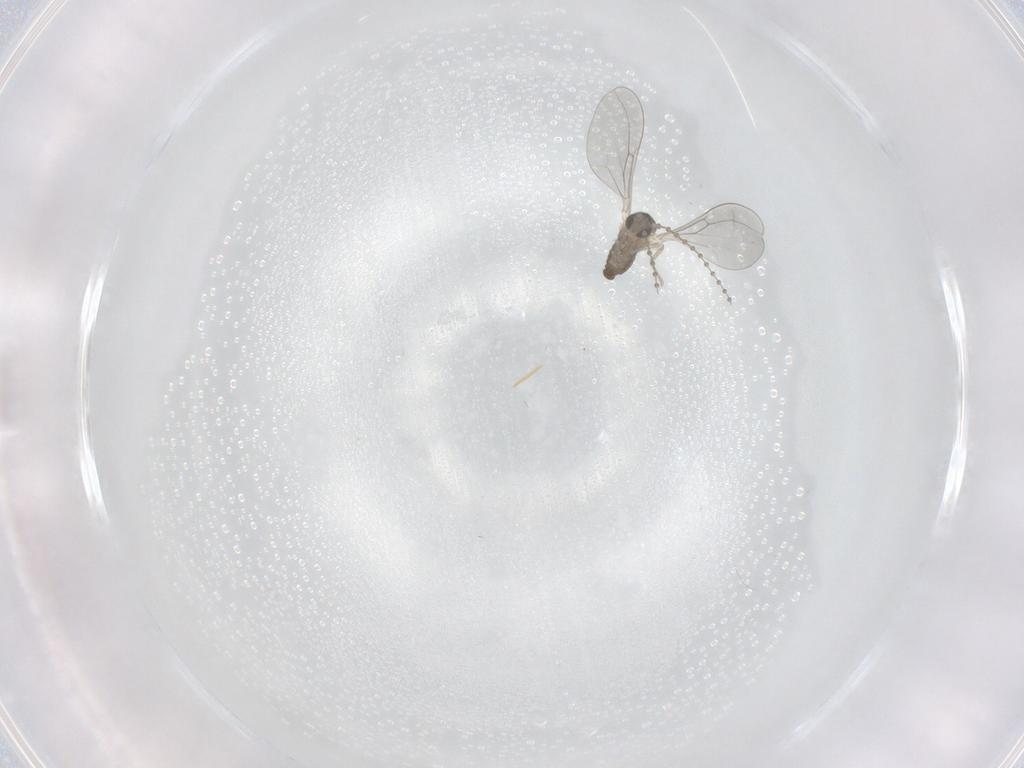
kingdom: Animalia
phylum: Arthropoda
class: Insecta
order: Diptera
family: Cecidomyiidae
